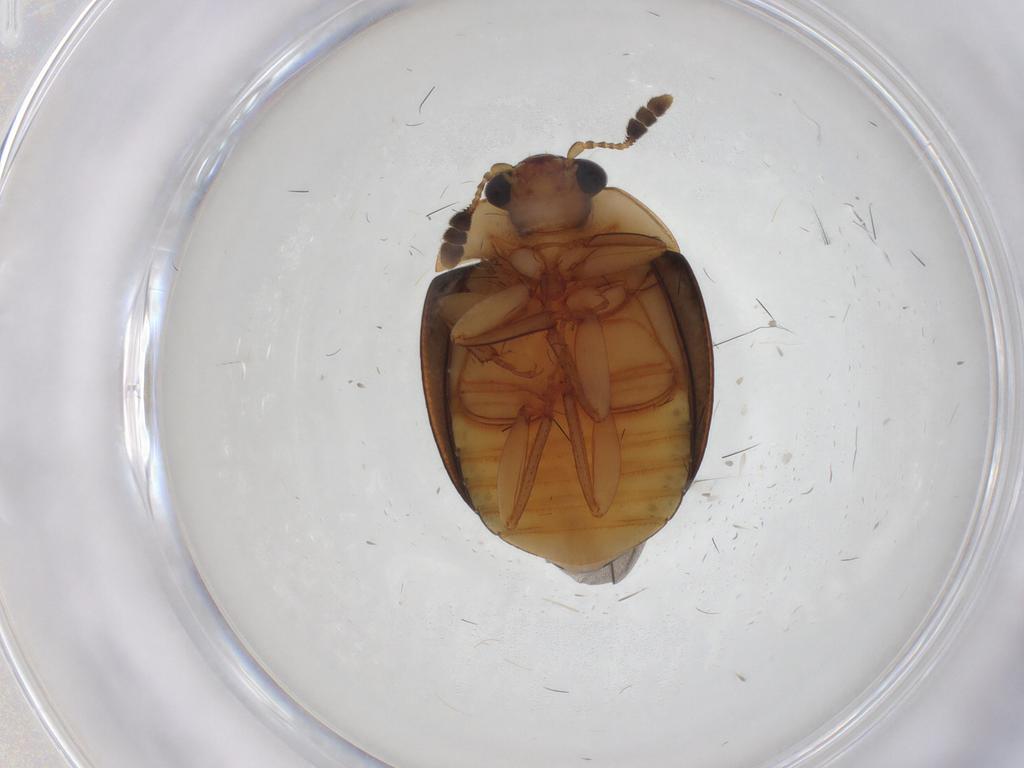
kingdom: Animalia
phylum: Arthropoda
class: Insecta
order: Coleoptera
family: Nitidulidae
